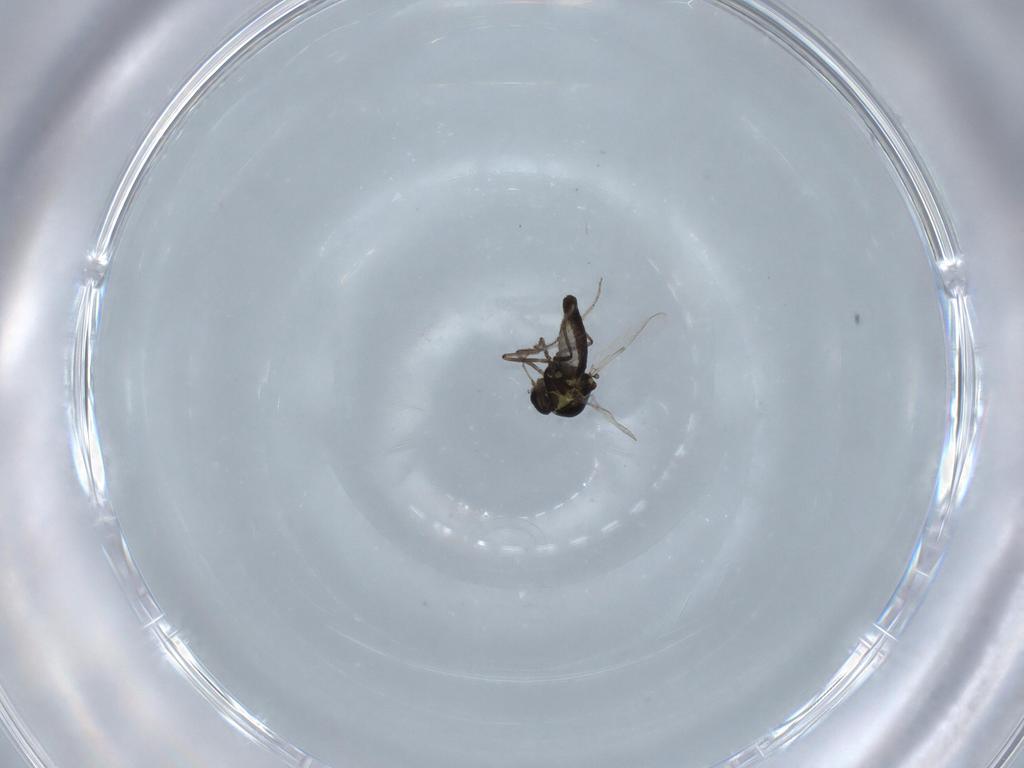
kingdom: Animalia
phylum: Arthropoda
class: Insecta
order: Diptera
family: Ceratopogonidae
